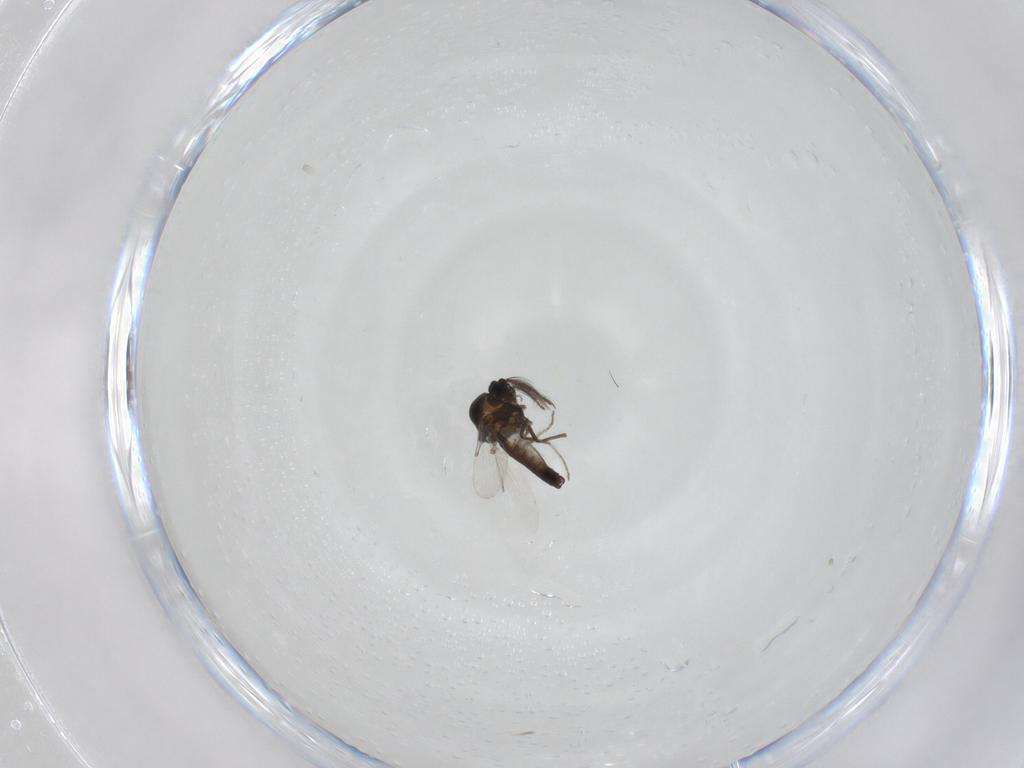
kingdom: Animalia
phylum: Arthropoda
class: Insecta
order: Diptera
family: Ceratopogonidae
